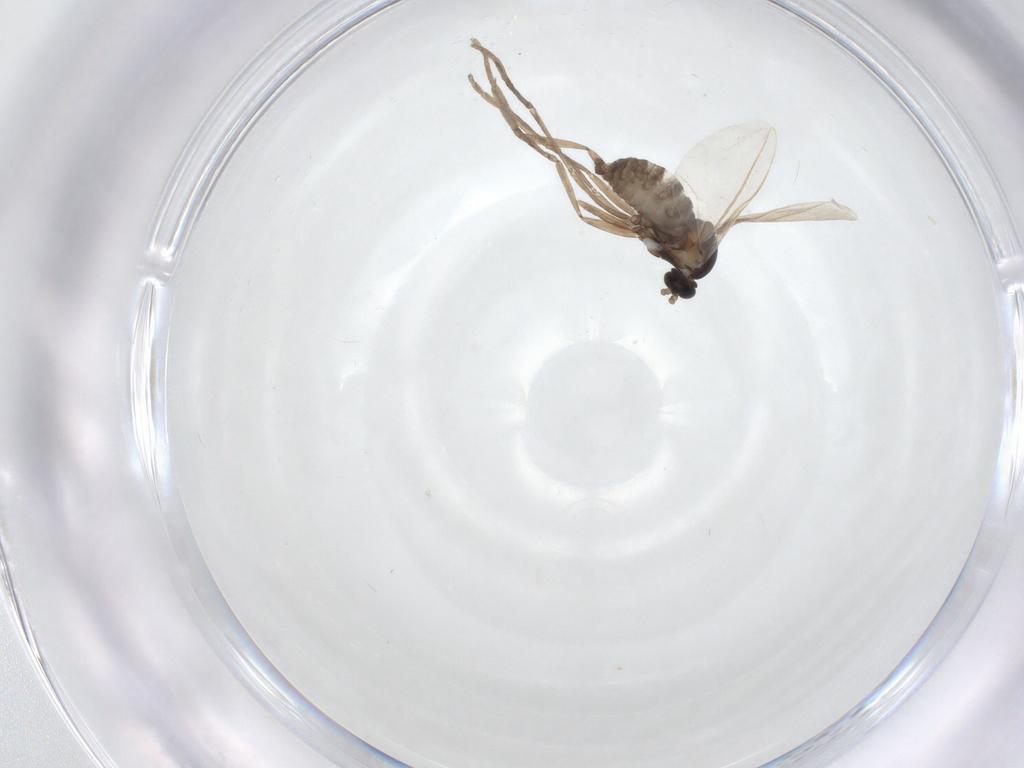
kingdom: Animalia
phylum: Arthropoda
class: Insecta
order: Diptera
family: Cecidomyiidae
